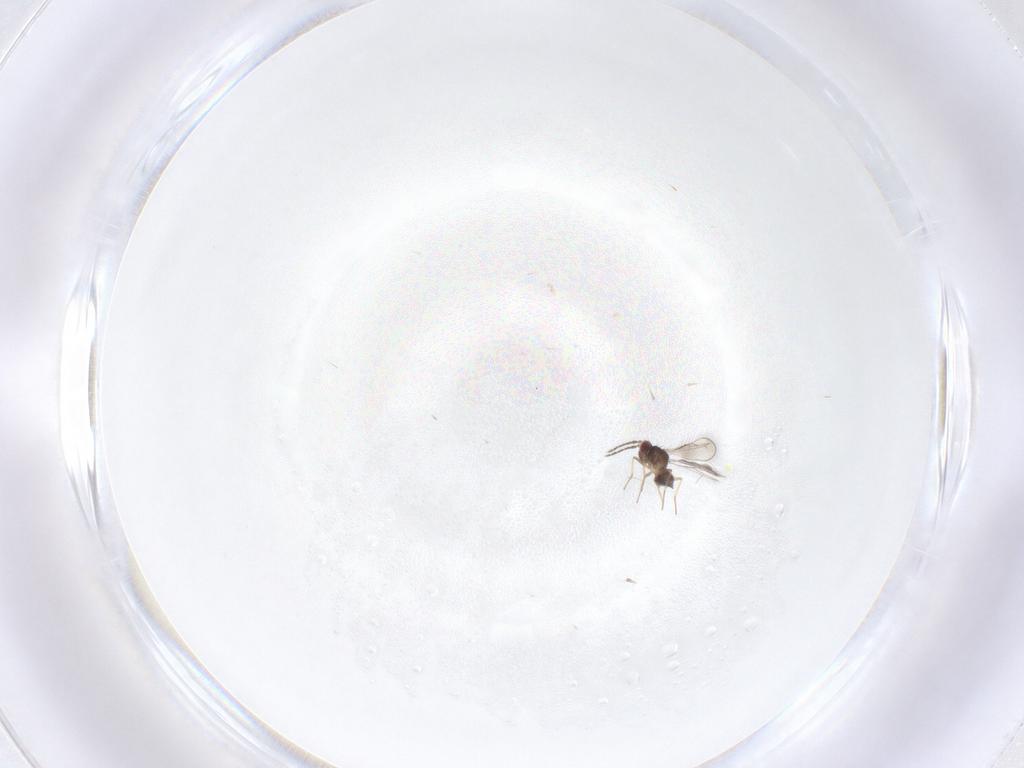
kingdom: Animalia
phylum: Arthropoda
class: Insecta
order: Hymenoptera
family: Eulophidae
